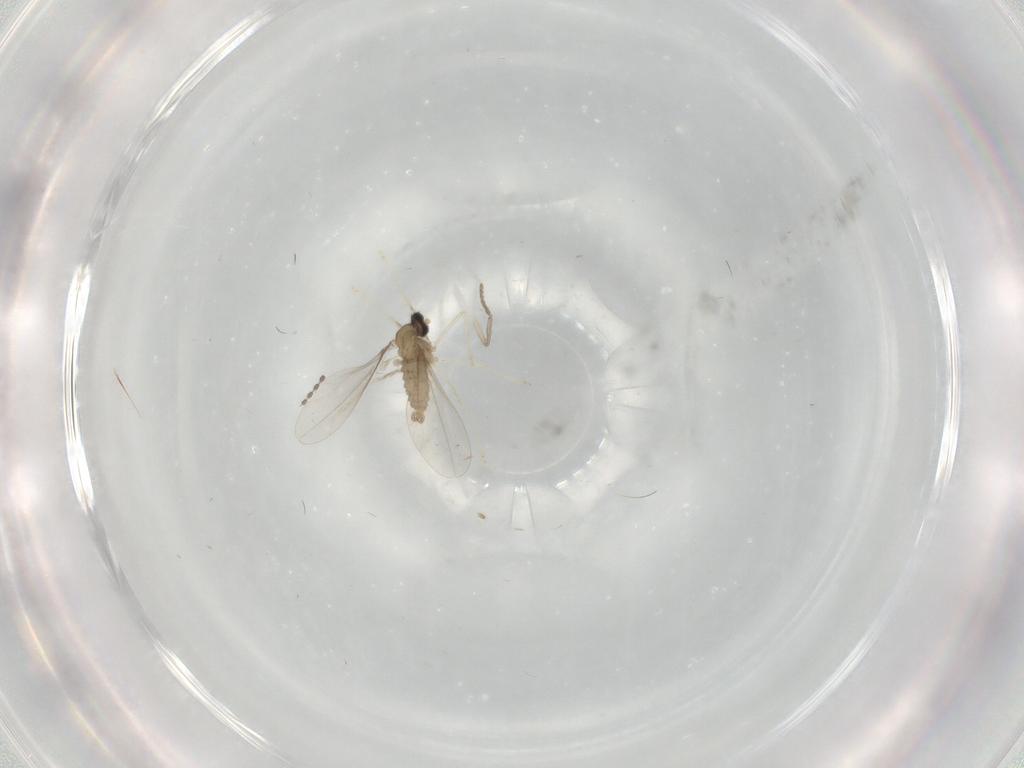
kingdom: Animalia
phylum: Arthropoda
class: Insecta
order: Diptera
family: Cecidomyiidae
